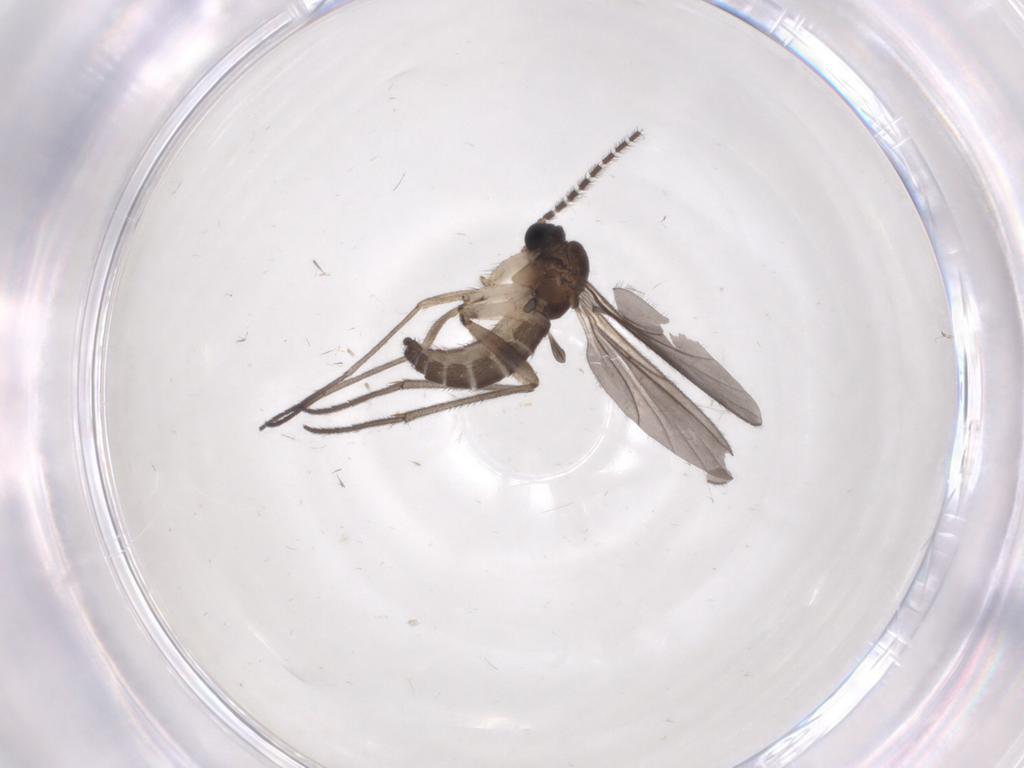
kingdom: Animalia
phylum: Arthropoda
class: Insecta
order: Diptera
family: Sciaridae
